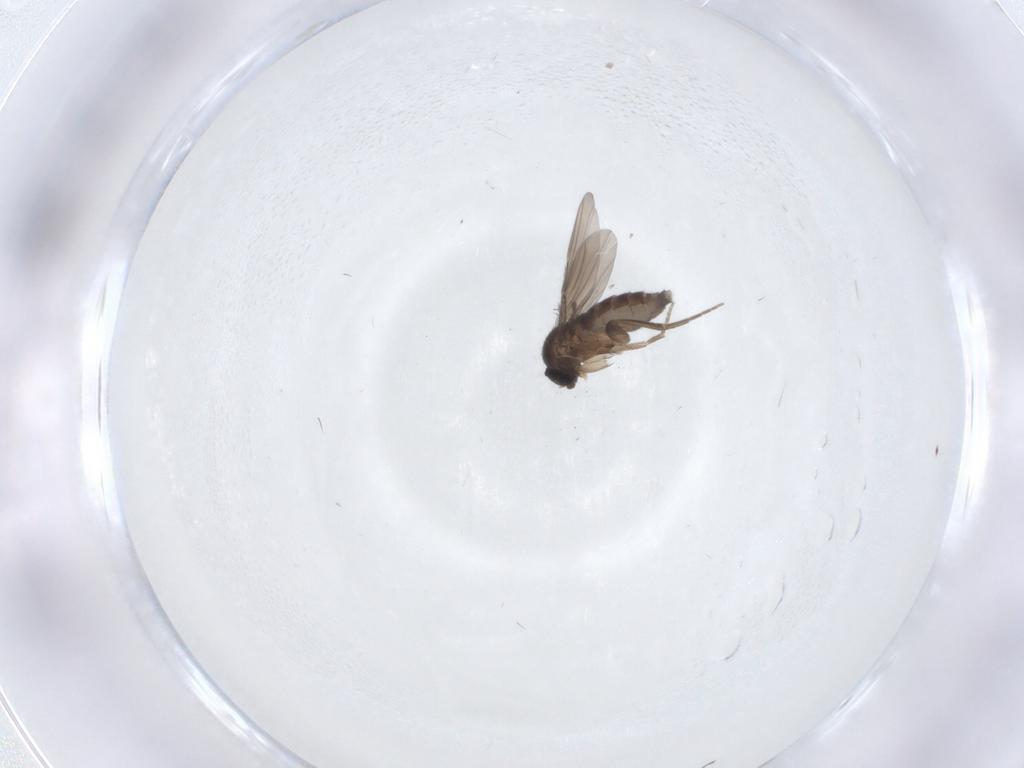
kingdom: Animalia
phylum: Arthropoda
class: Insecta
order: Diptera
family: Phoridae
